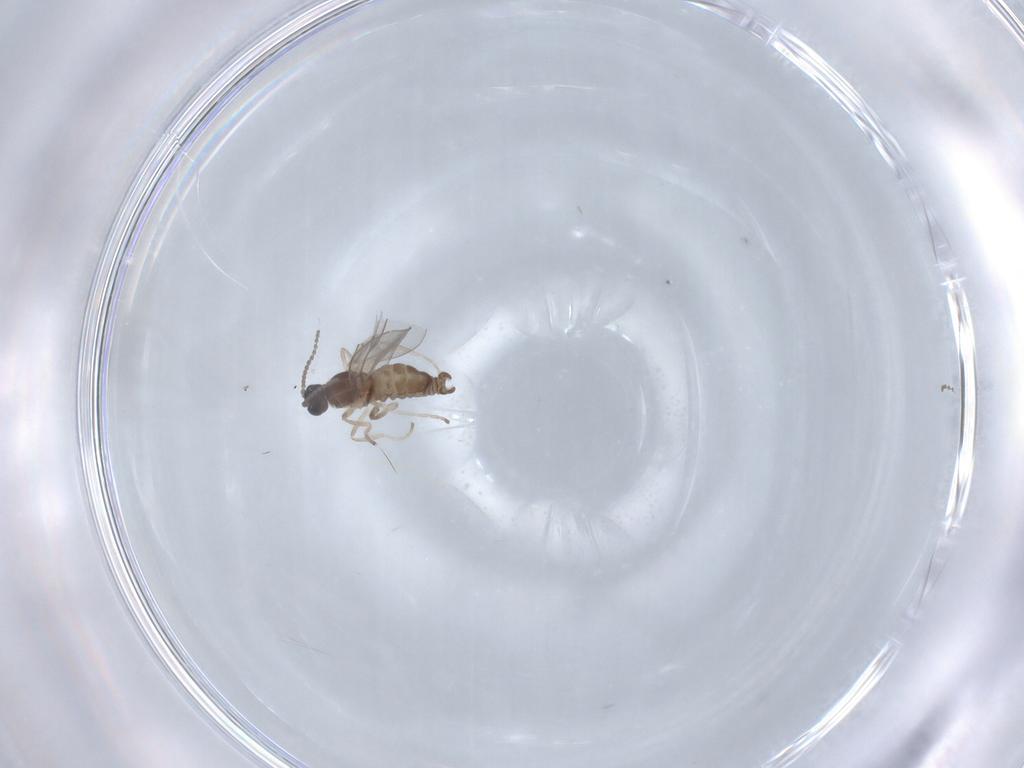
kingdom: Animalia
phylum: Arthropoda
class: Insecta
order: Diptera
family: Cecidomyiidae
